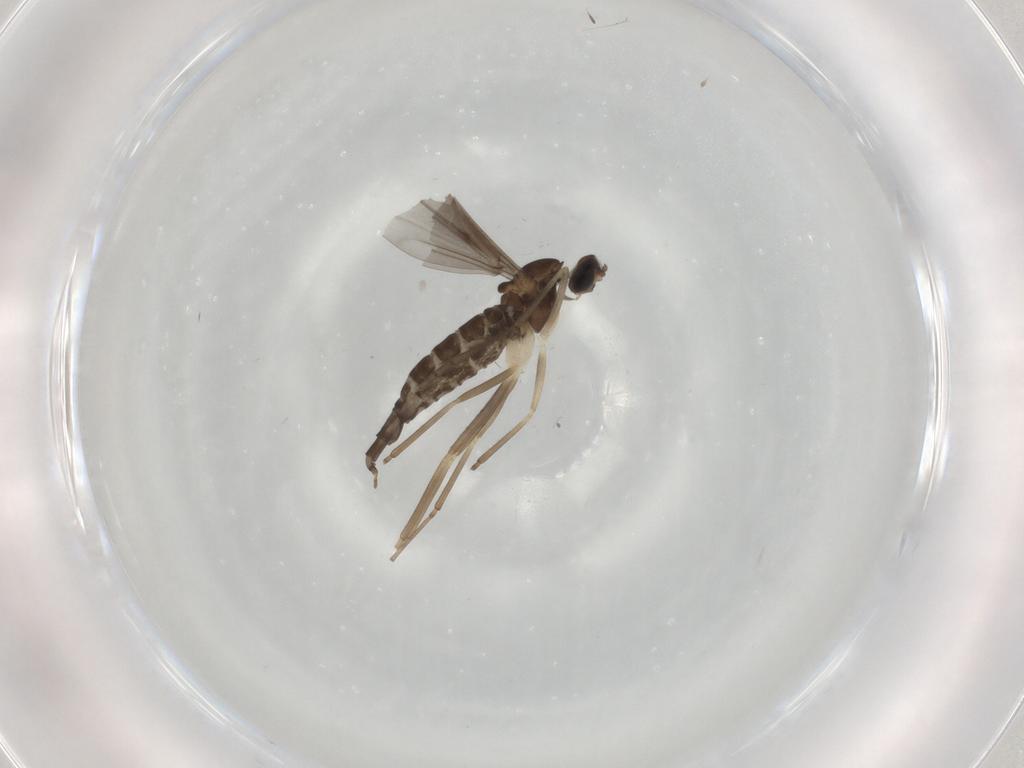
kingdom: Animalia
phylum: Arthropoda
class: Insecta
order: Diptera
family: Cecidomyiidae
